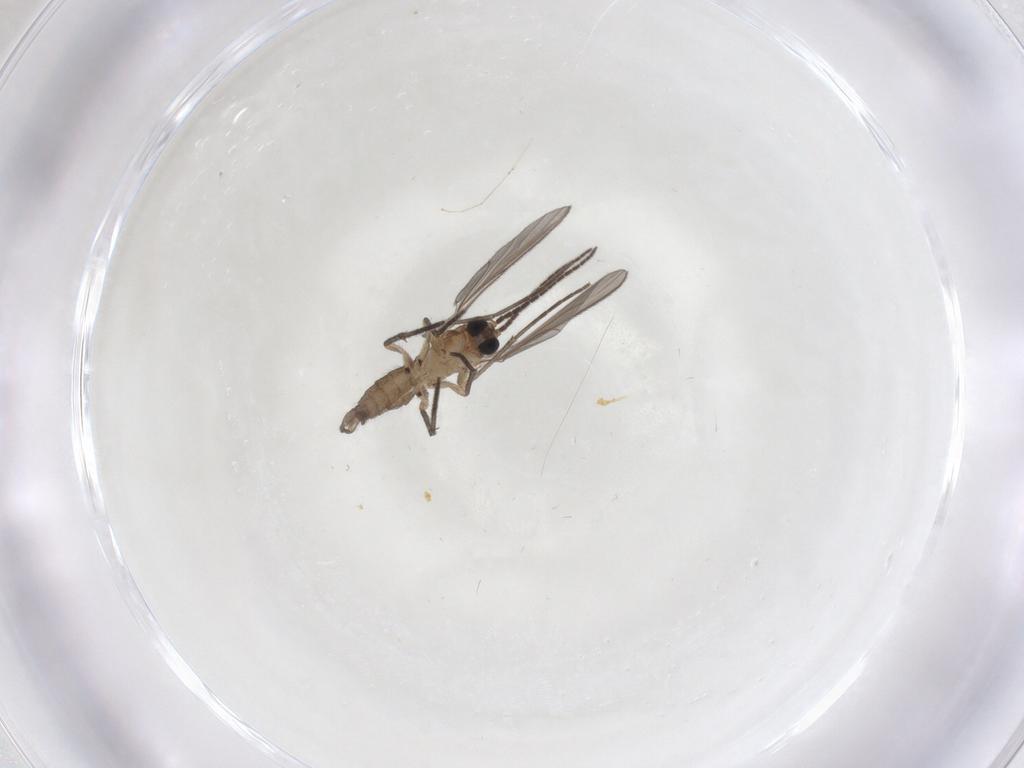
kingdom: Animalia
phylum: Arthropoda
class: Insecta
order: Diptera
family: Sciaridae
